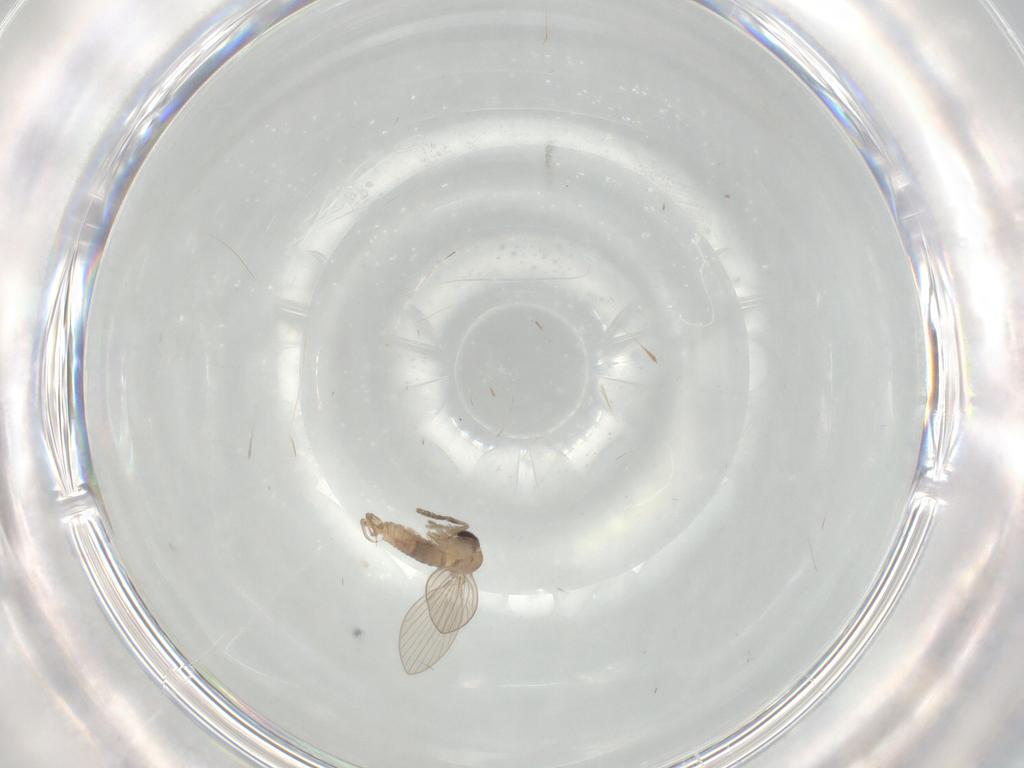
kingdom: Animalia
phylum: Arthropoda
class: Insecta
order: Diptera
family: Psychodidae
